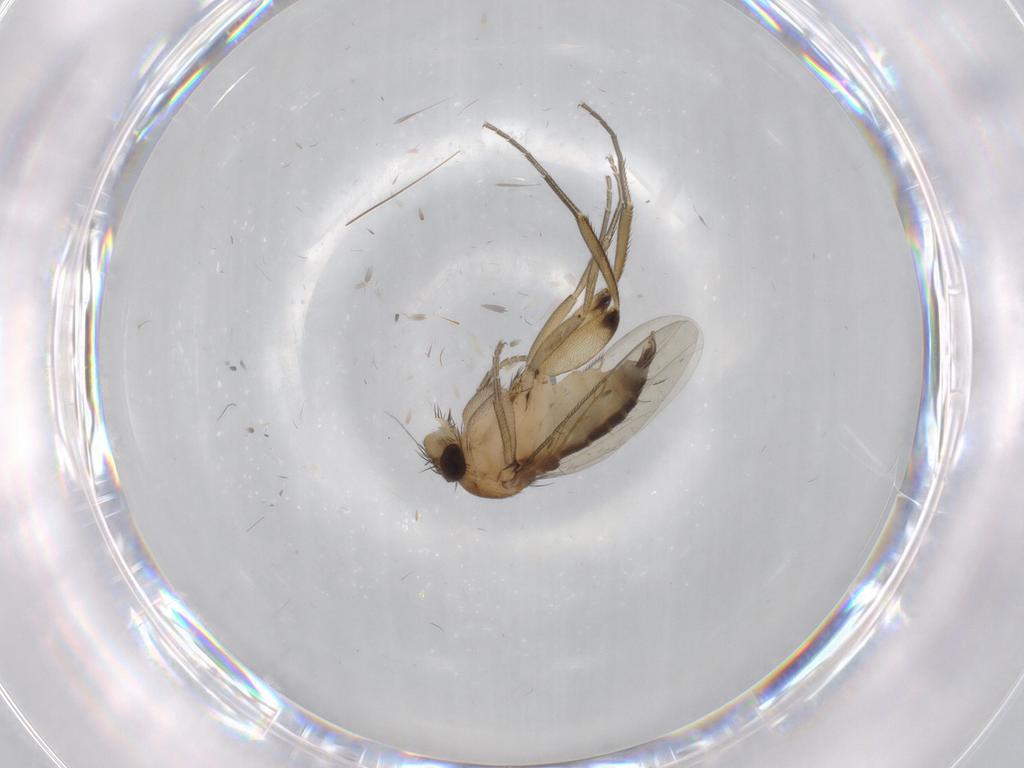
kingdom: Animalia
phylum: Arthropoda
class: Insecta
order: Diptera
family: Phoridae
